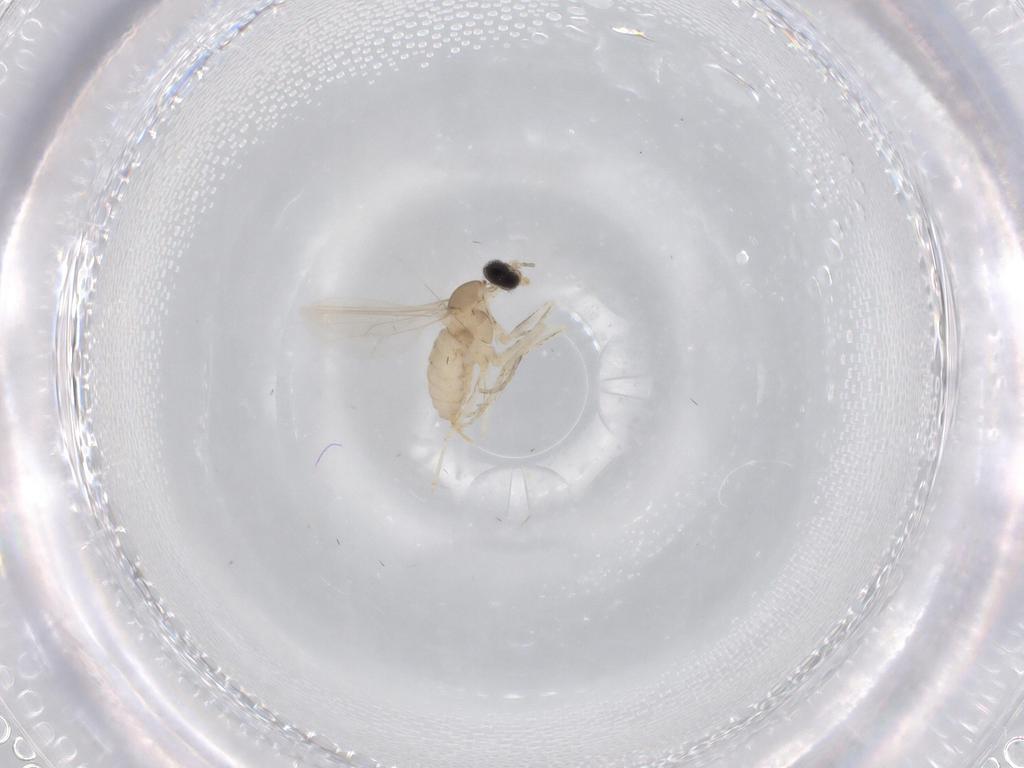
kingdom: Animalia
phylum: Arthropoda
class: Insecta
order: Diptera
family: Cecidomyiidae
